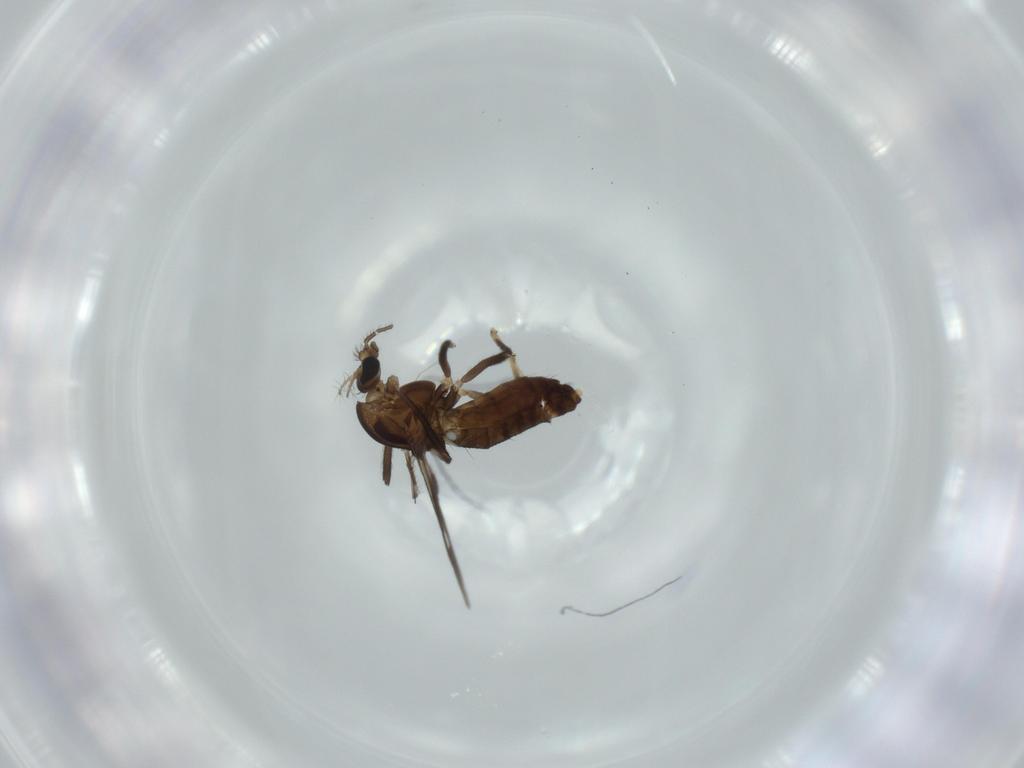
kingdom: Animalia
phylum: Arthropoda
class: Insecta
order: Diptera
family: Chironomidae
